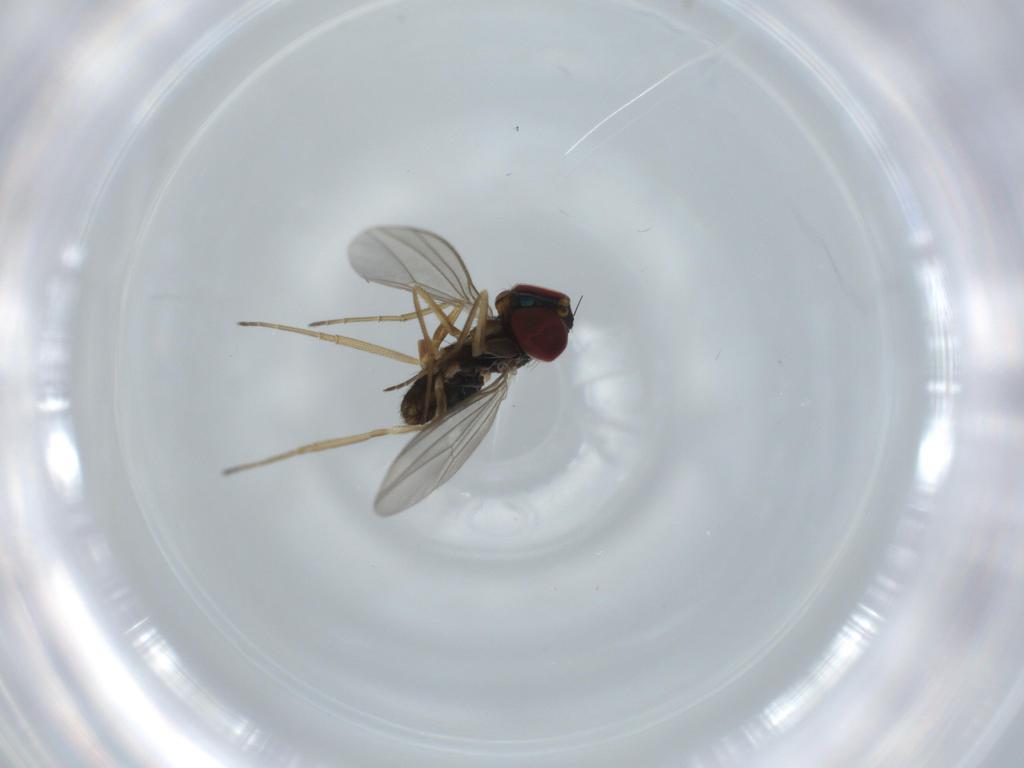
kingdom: Animalia
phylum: Arthropoda
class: Insecta
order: Diptera
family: Dolichopodidae
